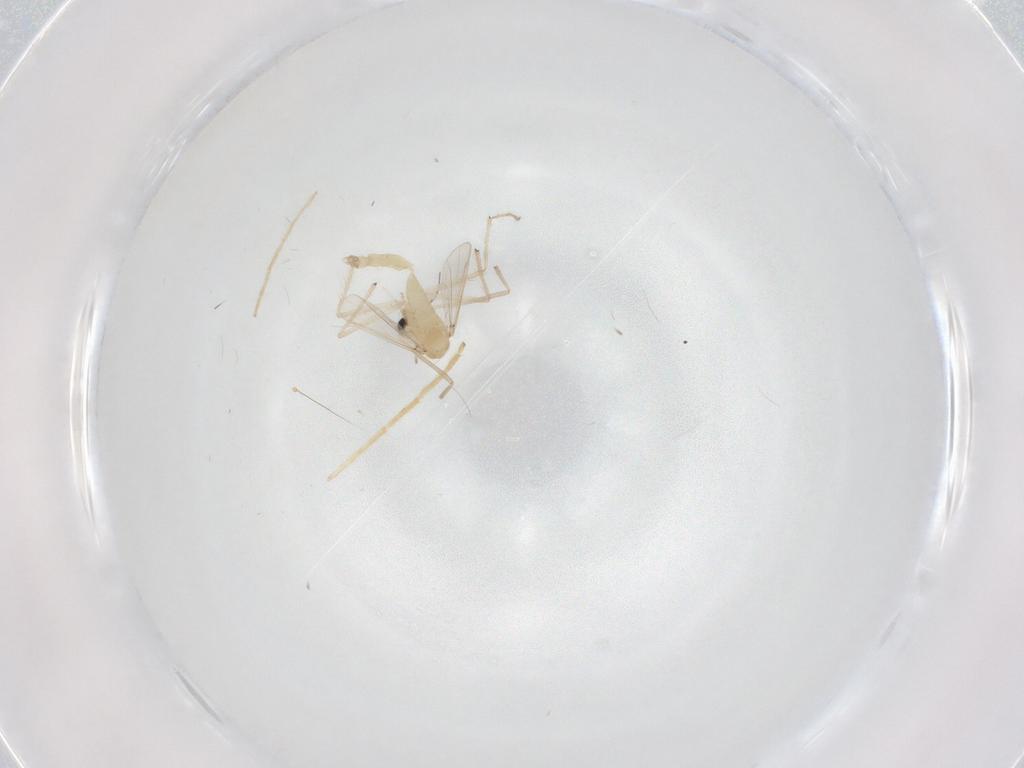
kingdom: Animalia
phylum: Arthropoda
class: Insecta
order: Diptera
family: Chironomidae
